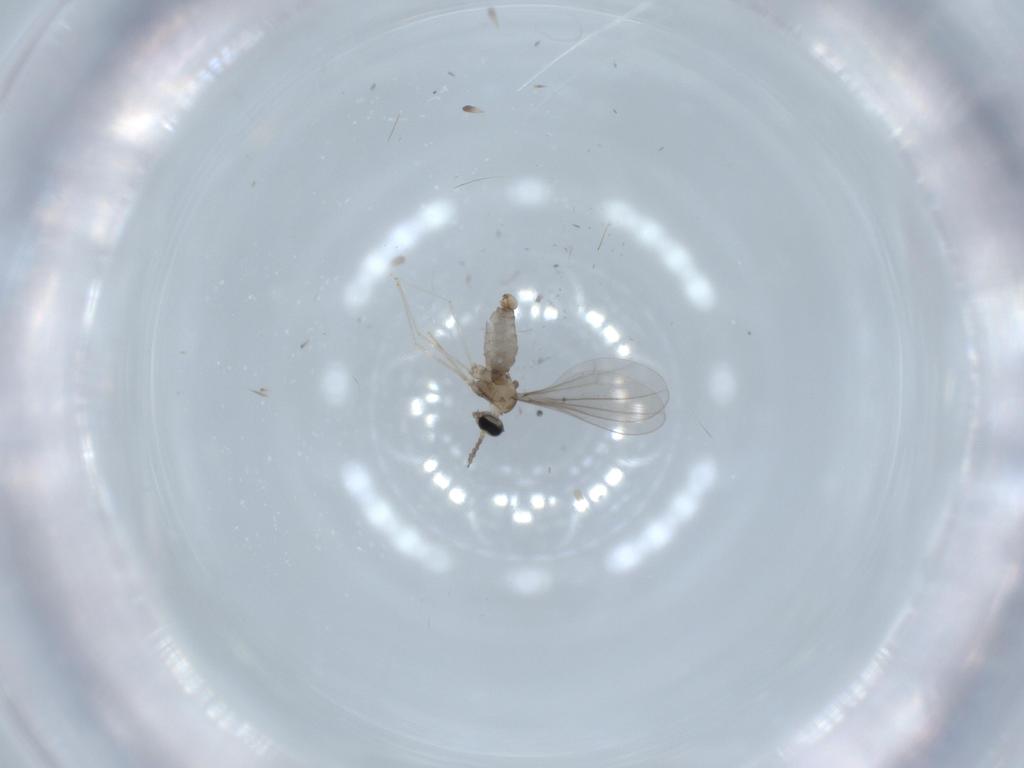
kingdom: Animalia
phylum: Arthropoda
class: Insecta
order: Diptera
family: Cecidomyiidae
